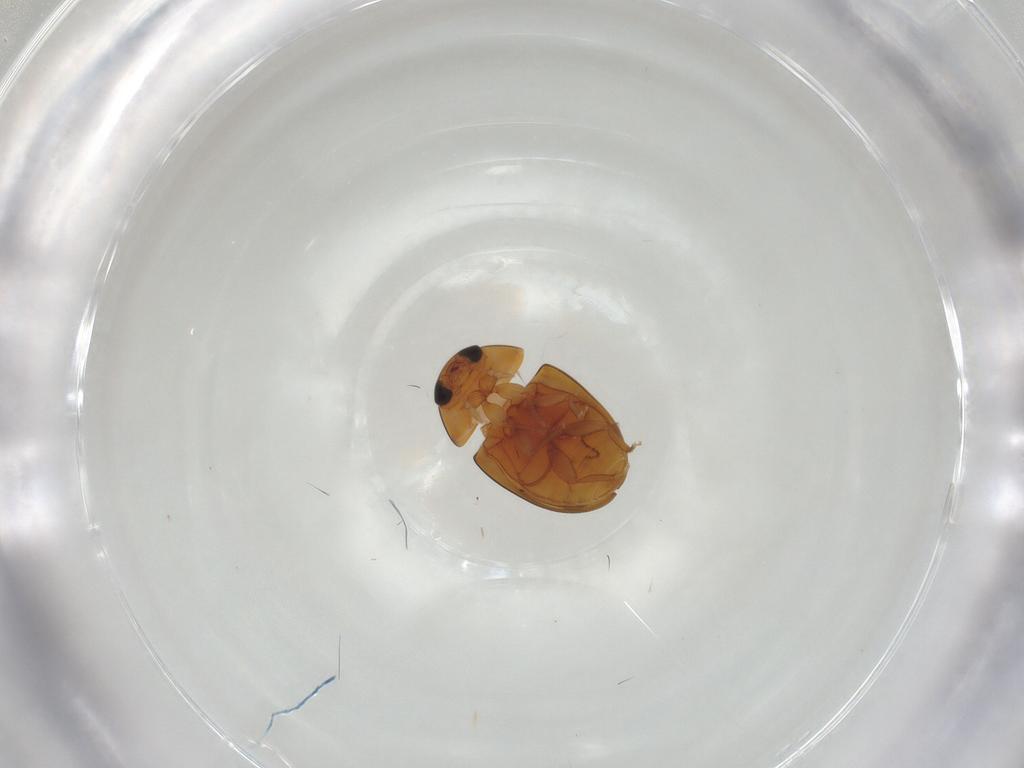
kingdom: Animalia
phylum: Arthropoda
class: Insecta
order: Coleoptera
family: Phalacridae
